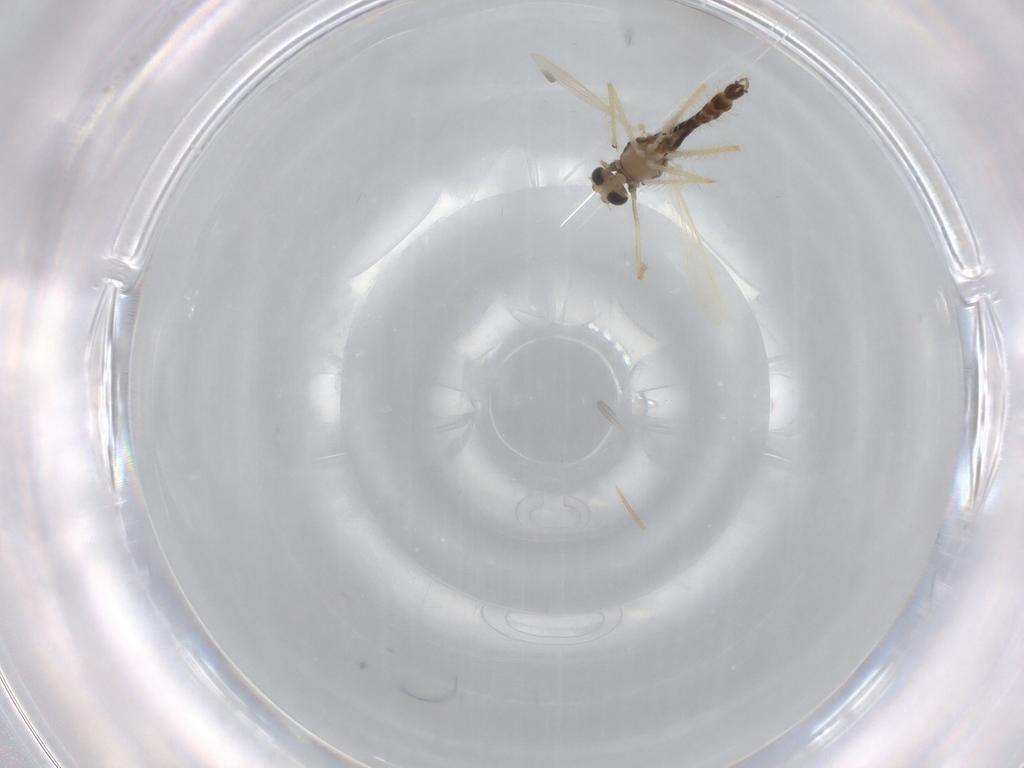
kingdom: Animalia
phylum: Arthropoda
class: Insecta
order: Diptera
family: Chironomidae
